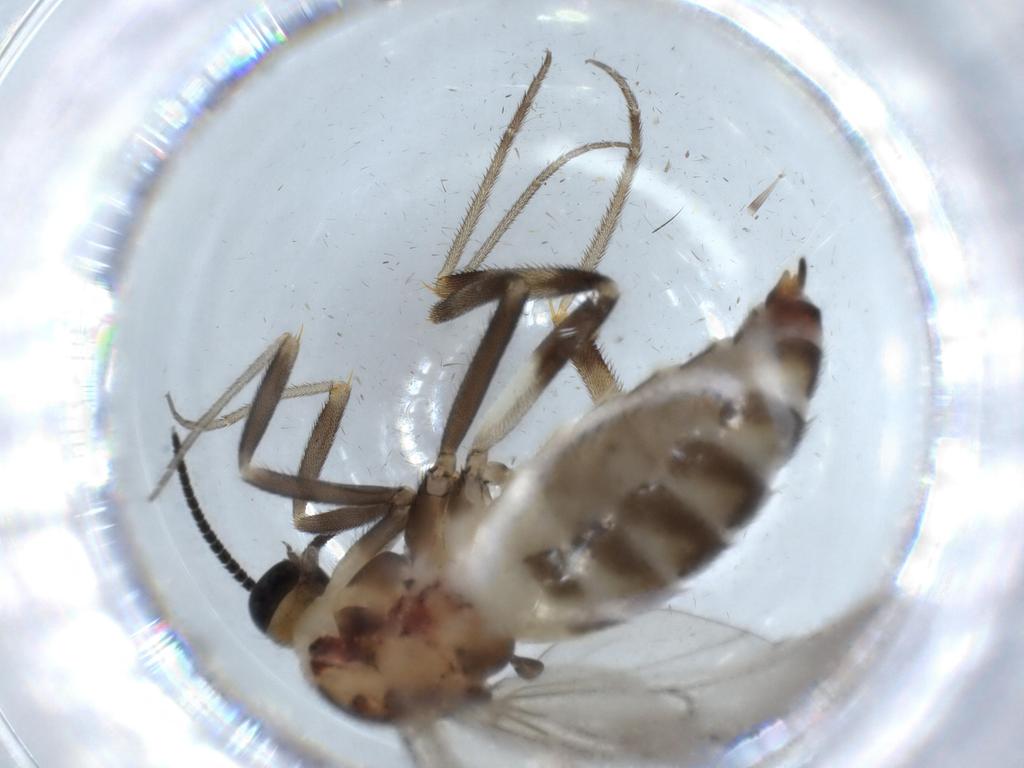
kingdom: Animalia
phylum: Arthropoda
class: Insecta
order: Diptera
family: Anisopodidae
